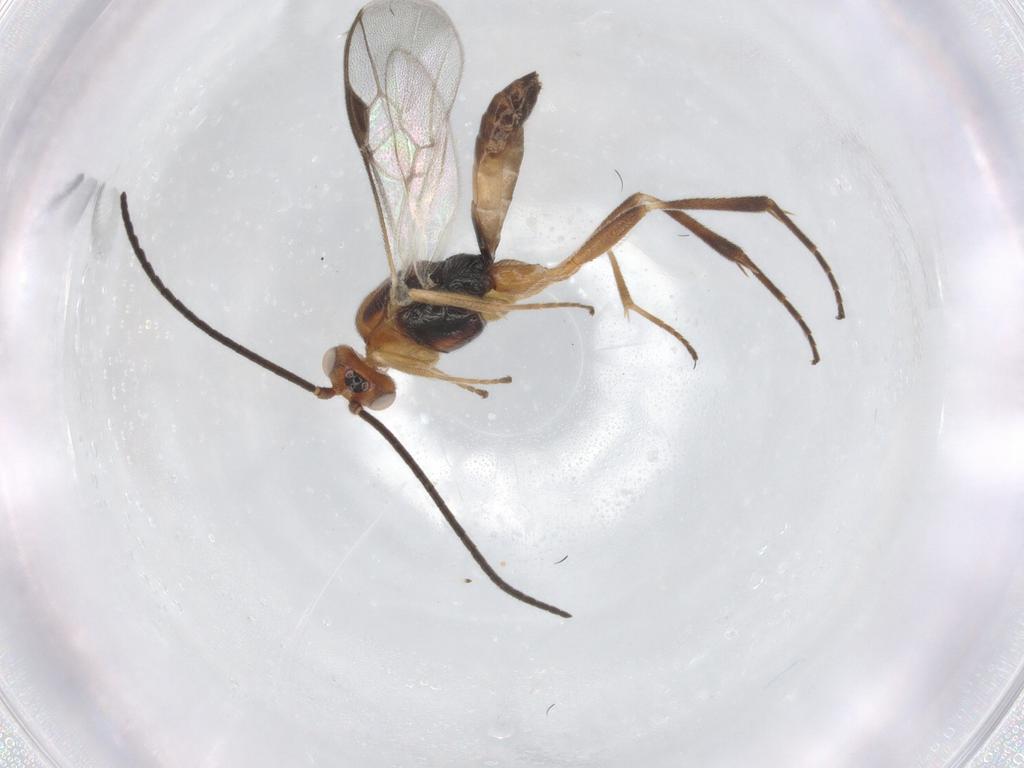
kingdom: Animalia
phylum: Arthropoda
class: Insecta
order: Hymenoptera
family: Braconidae
